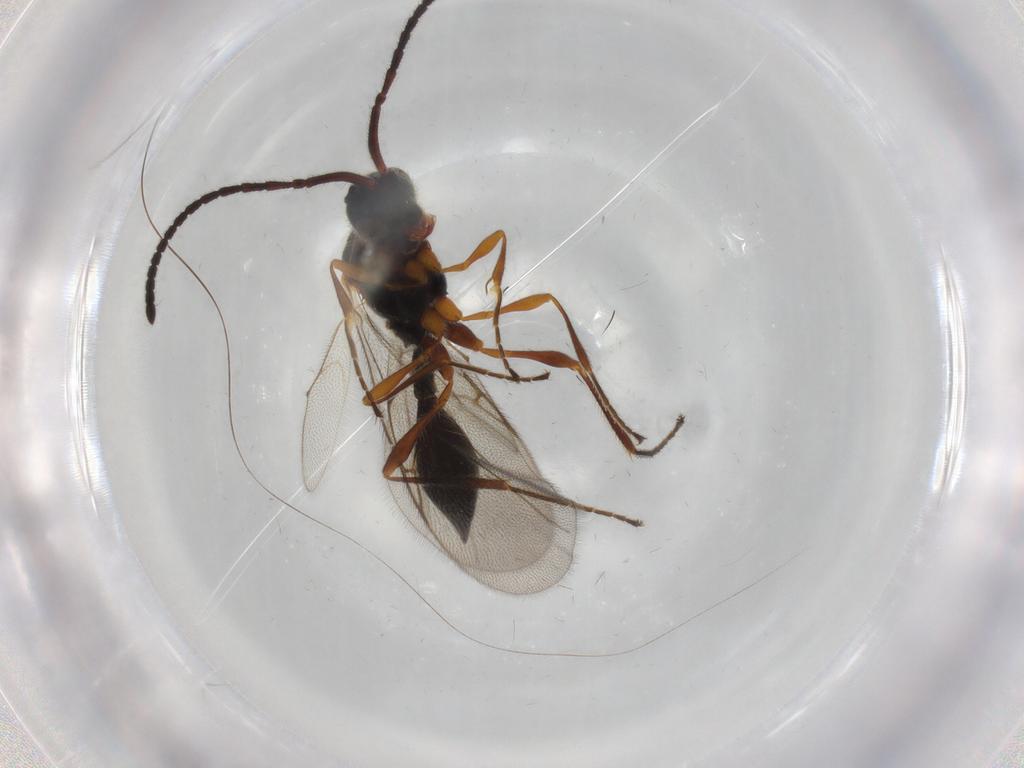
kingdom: Animalia
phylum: Arthropoda
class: Insecta
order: Hymenoptera
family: Diapriidae
